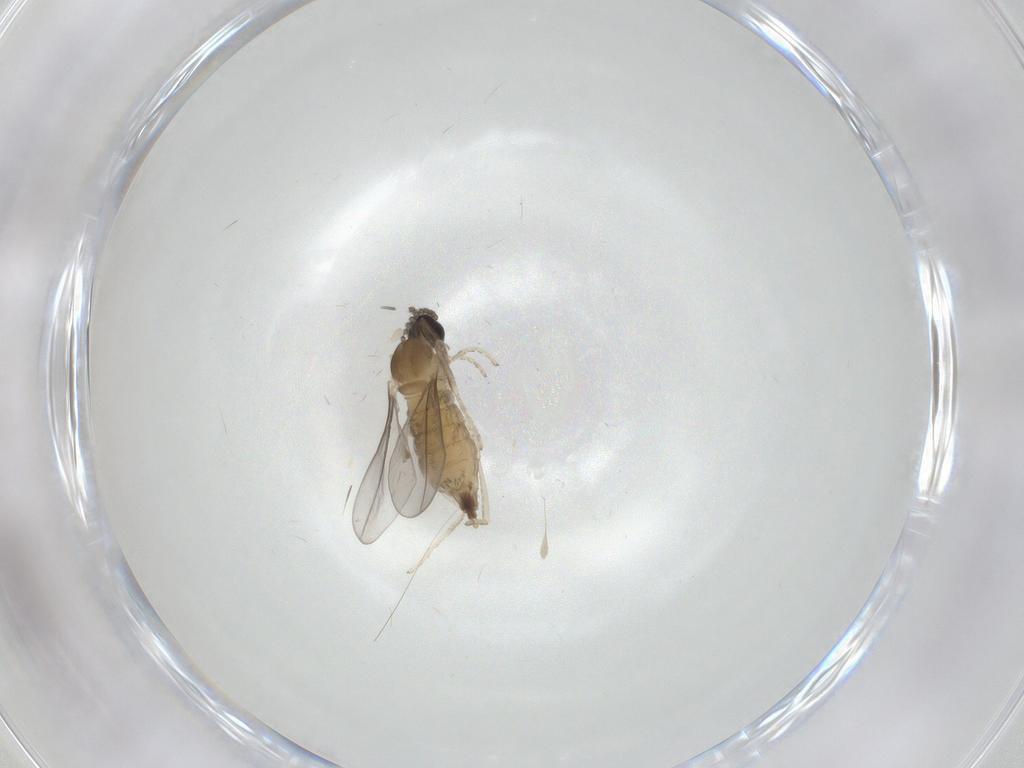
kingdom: Animalia
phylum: Arthropoda
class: Insecta
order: Diptera
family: Cecidomyiidae
